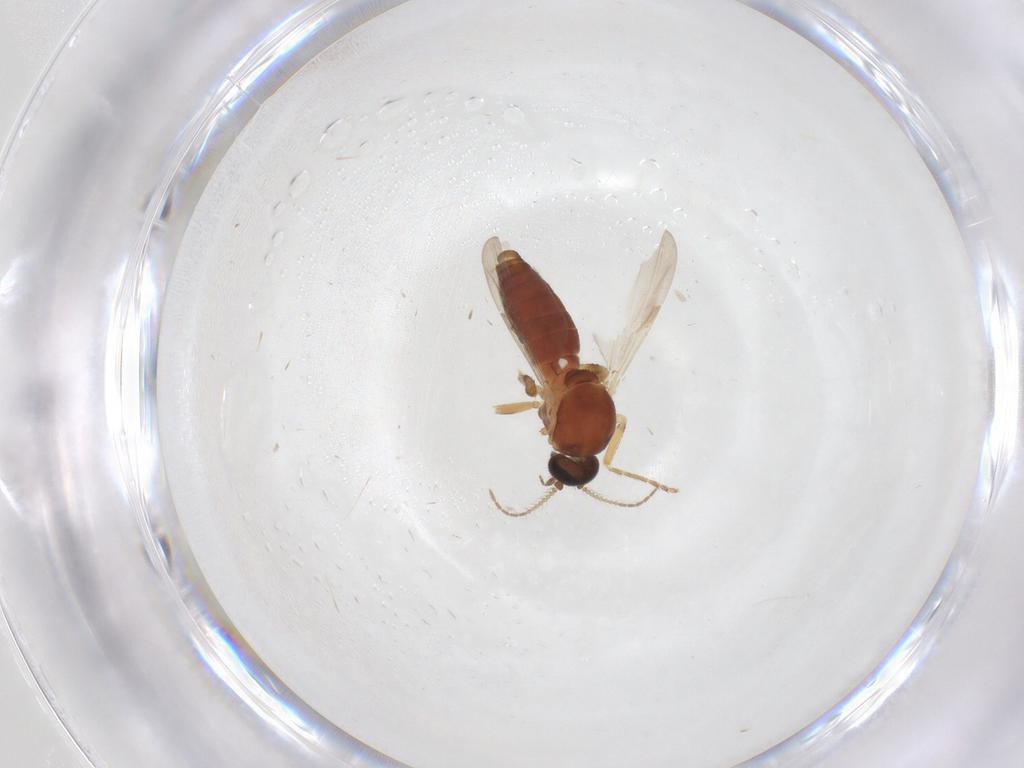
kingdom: Animalia
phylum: Arthropoda
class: Insecta
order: Diptera
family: Ceratopogonidae
